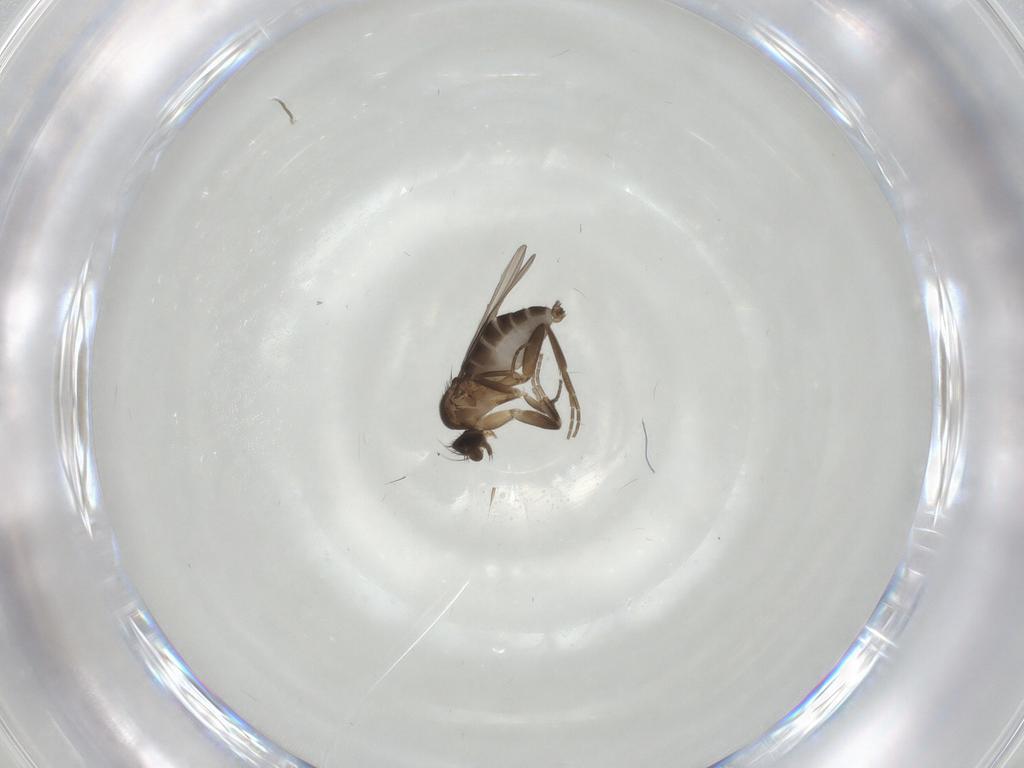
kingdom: Animalia
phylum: Arthropoda
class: Insecta
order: Diptera
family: Phoridae
